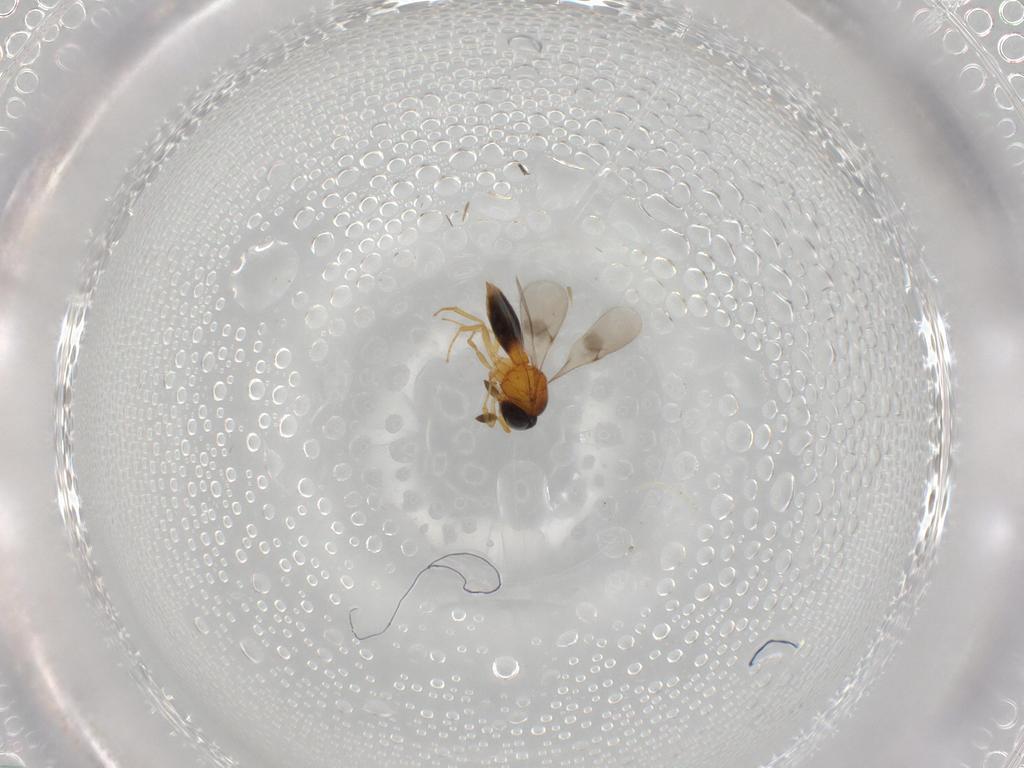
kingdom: Animalia
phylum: Arthropoda
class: Insecta
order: Hymenoptera
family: Scelionidae
